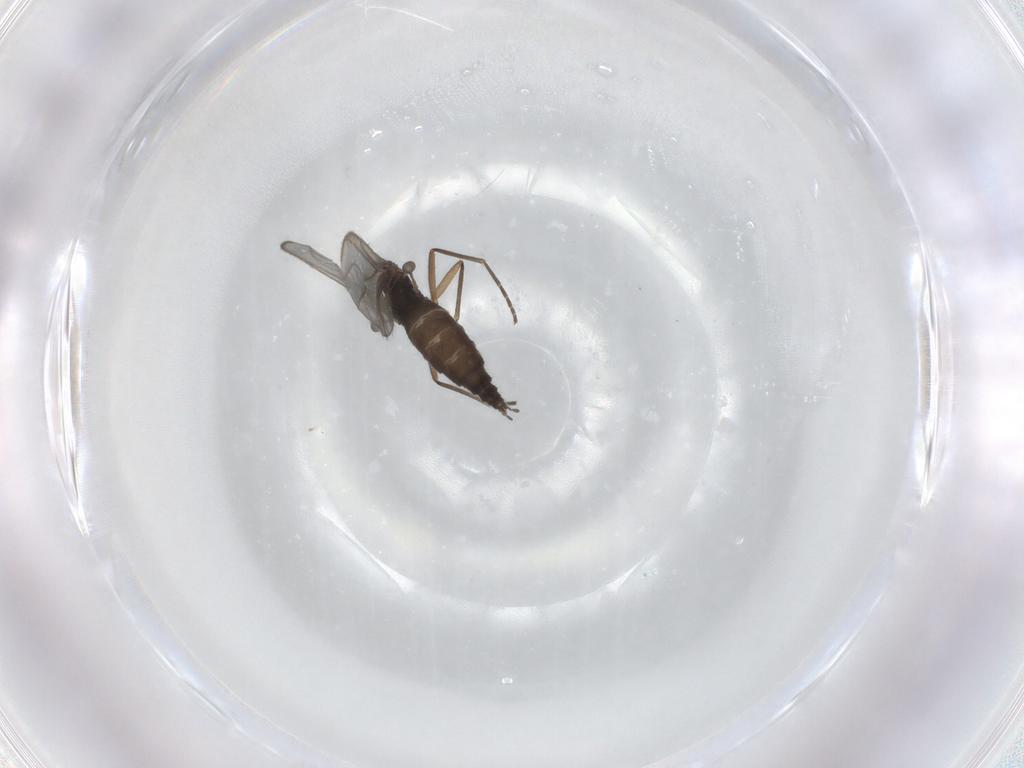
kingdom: Animalia
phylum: Arthropoda
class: Insecta
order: Diptera
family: Sciaridae
